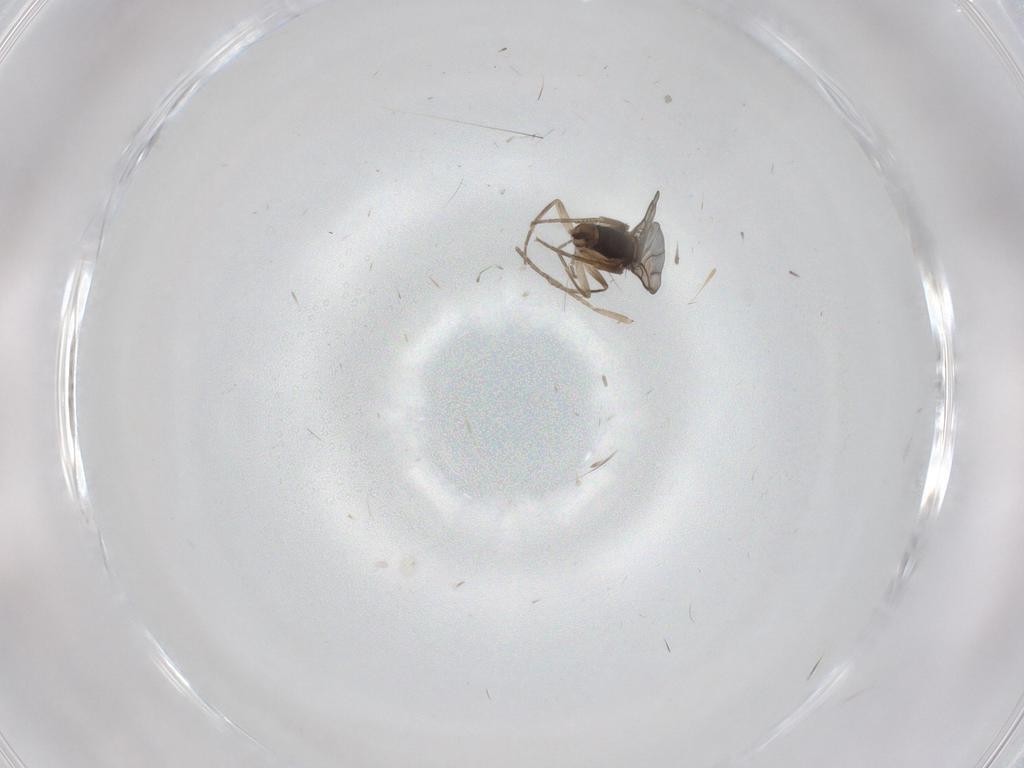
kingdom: Animalia
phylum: Arthropoda
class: Insecta
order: Diptera
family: Phoridae
